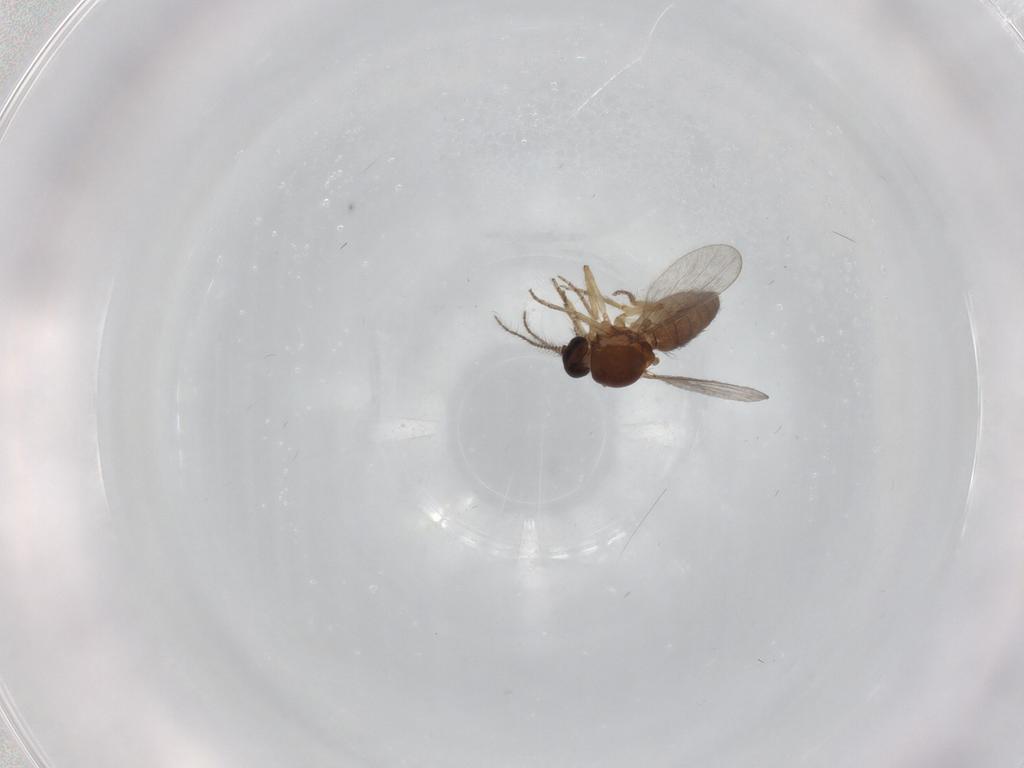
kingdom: Animalia
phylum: Arthropoda
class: Insecta
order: Diptera
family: Ceratopogonidae
